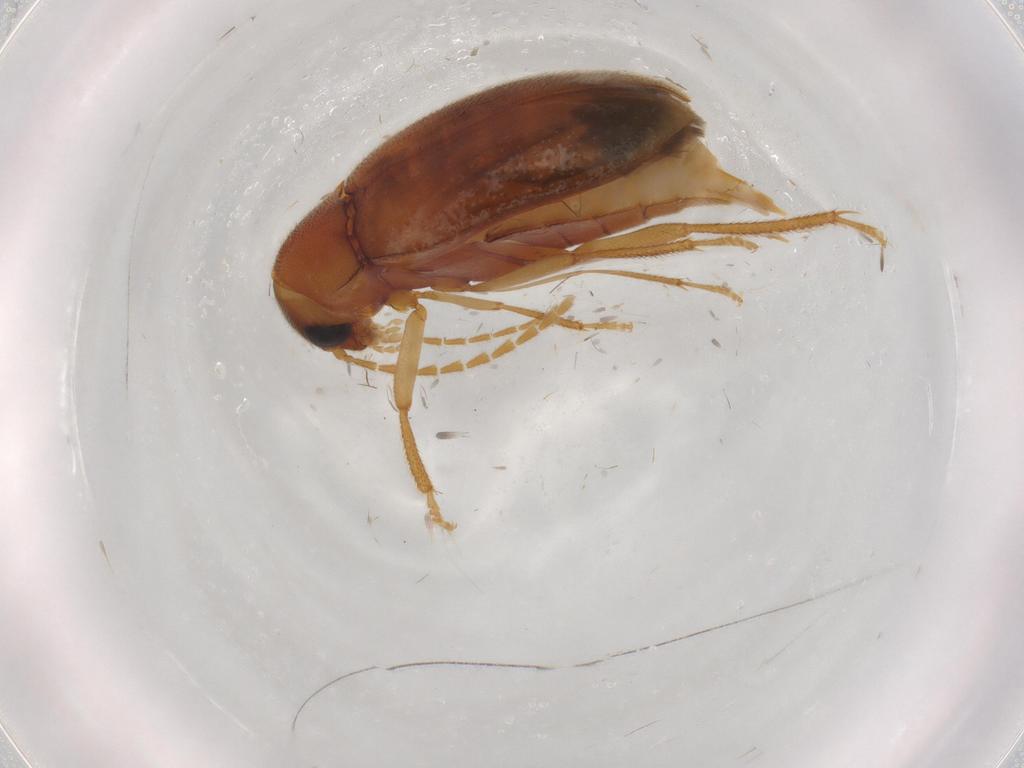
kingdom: Animalia
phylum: Arthropoda
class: Insecta
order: Coleoptera
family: Ptilodactylidae
